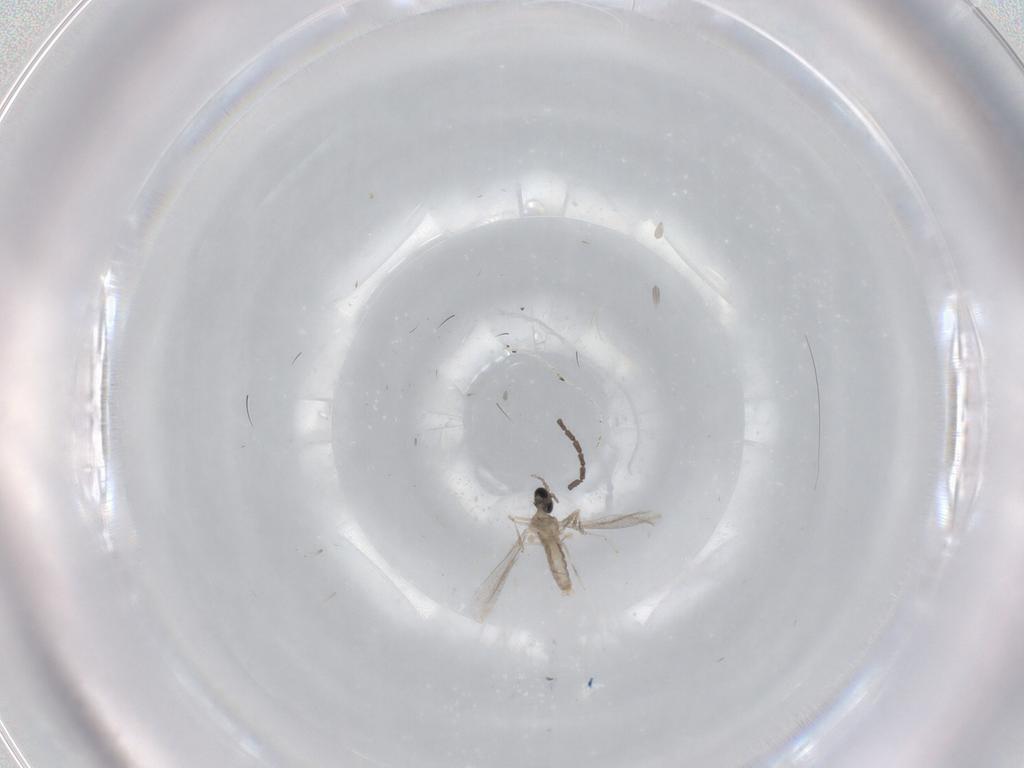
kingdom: Animalia
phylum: Arthropoda
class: Insecta
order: Diptera
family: Cecidomyiidae
